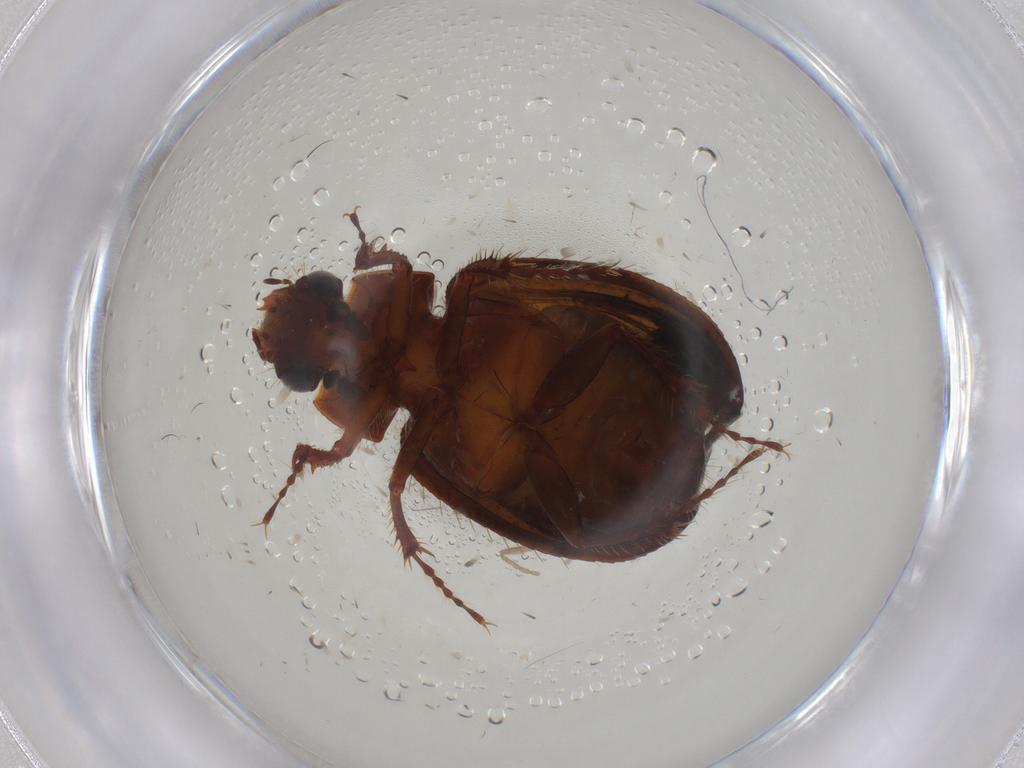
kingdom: Animalia
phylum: Arthropoda
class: Insecta
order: Coleoptera
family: Hybosoridae
